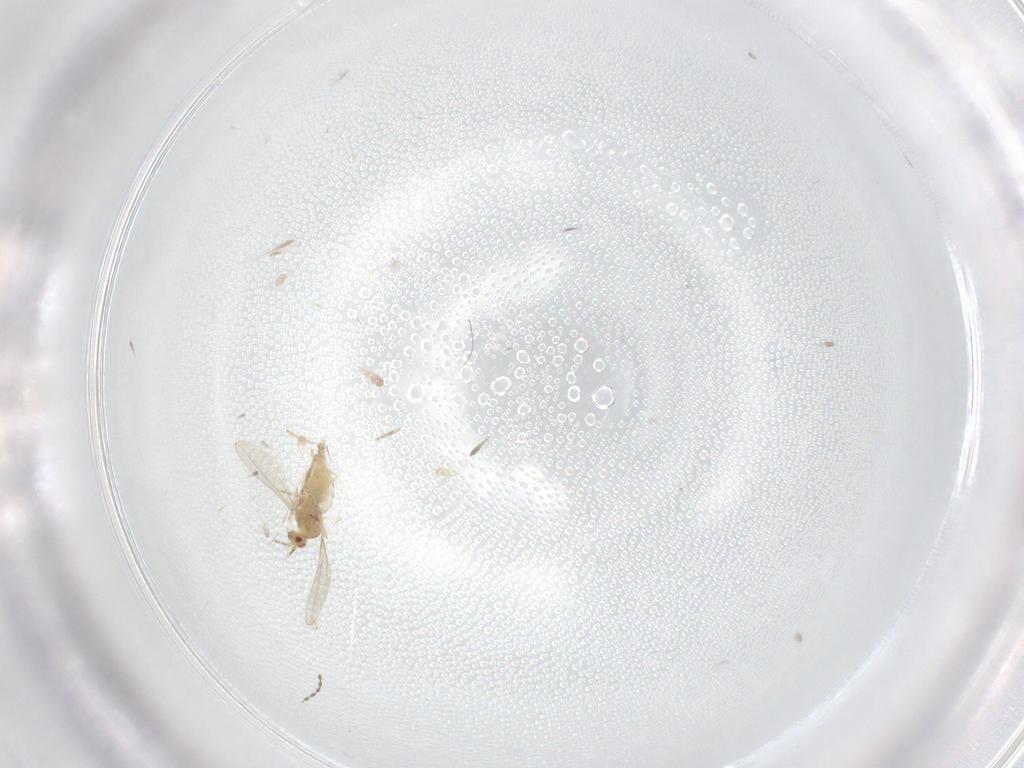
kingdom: Animalia
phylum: Arthropoda
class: Insecta
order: Diptera
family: Cecidomyiidae
